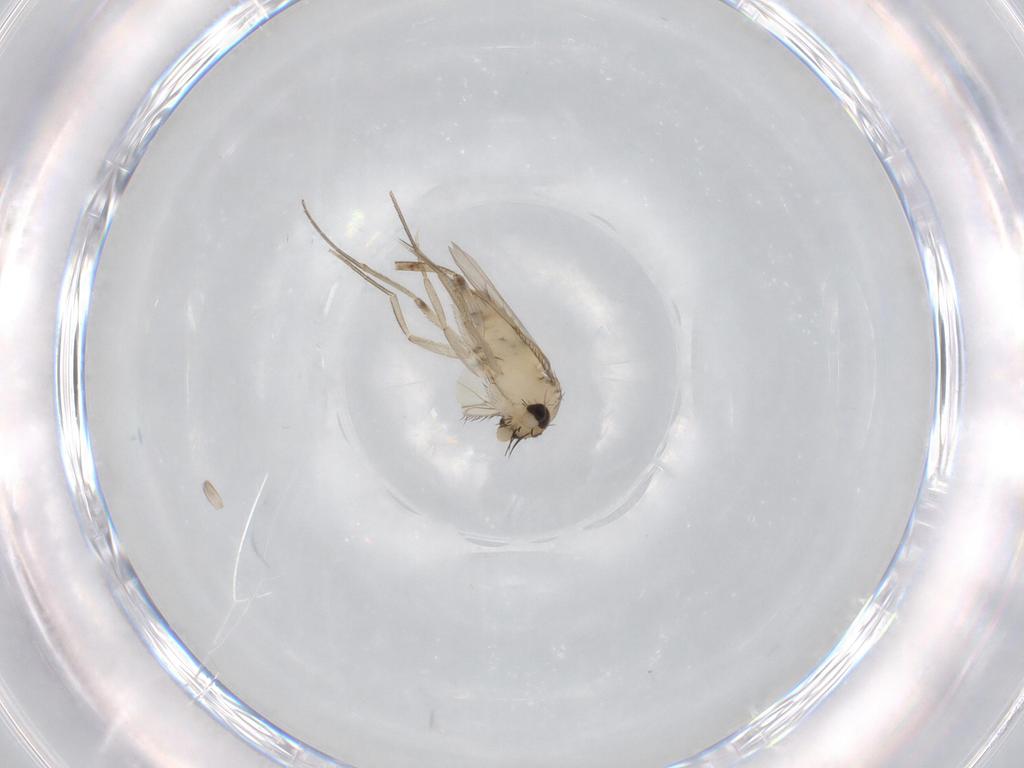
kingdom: Animalia
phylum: Arthropoda
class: Insecta
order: Diptera
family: Phoridae
